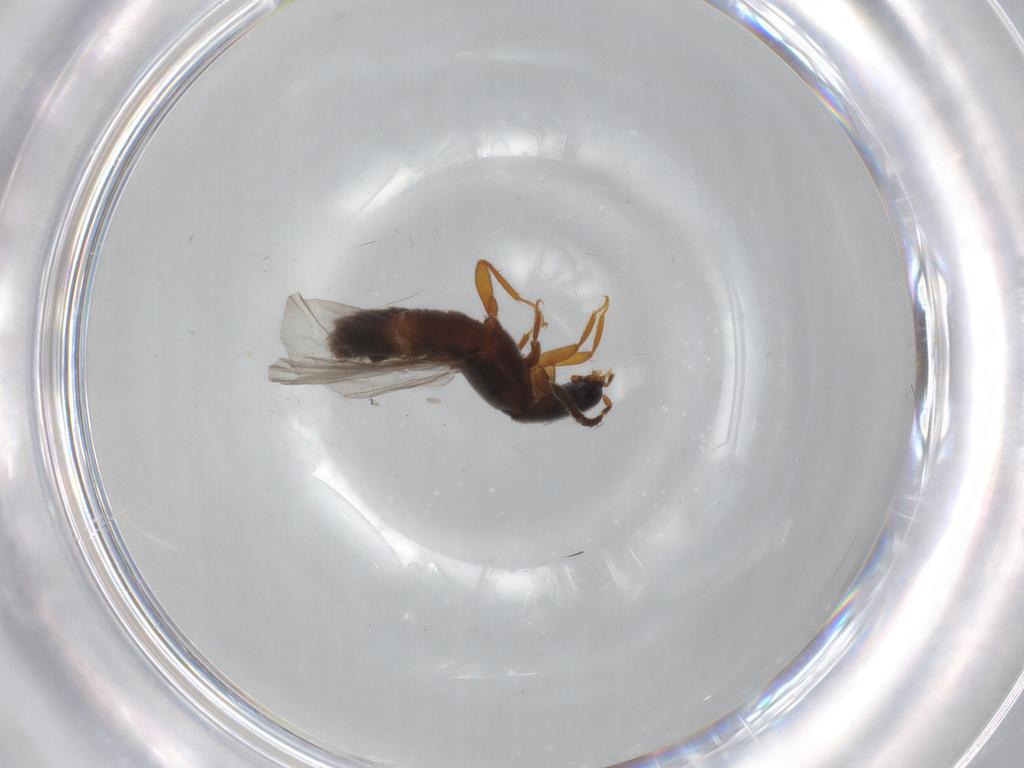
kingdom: Animalia
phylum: Arthropoda
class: Insecta
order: Coleoptera
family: Staphylinidae
